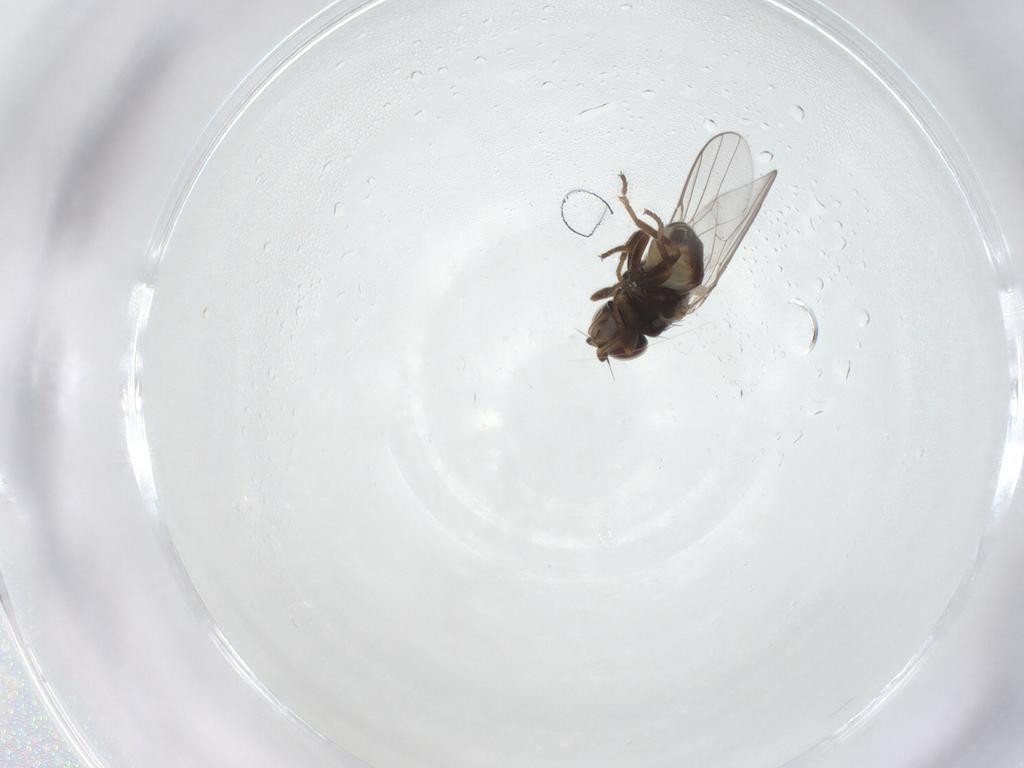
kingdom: Animalia
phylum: Arthropoda
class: Insecta
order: Diptera
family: Chloropidae
